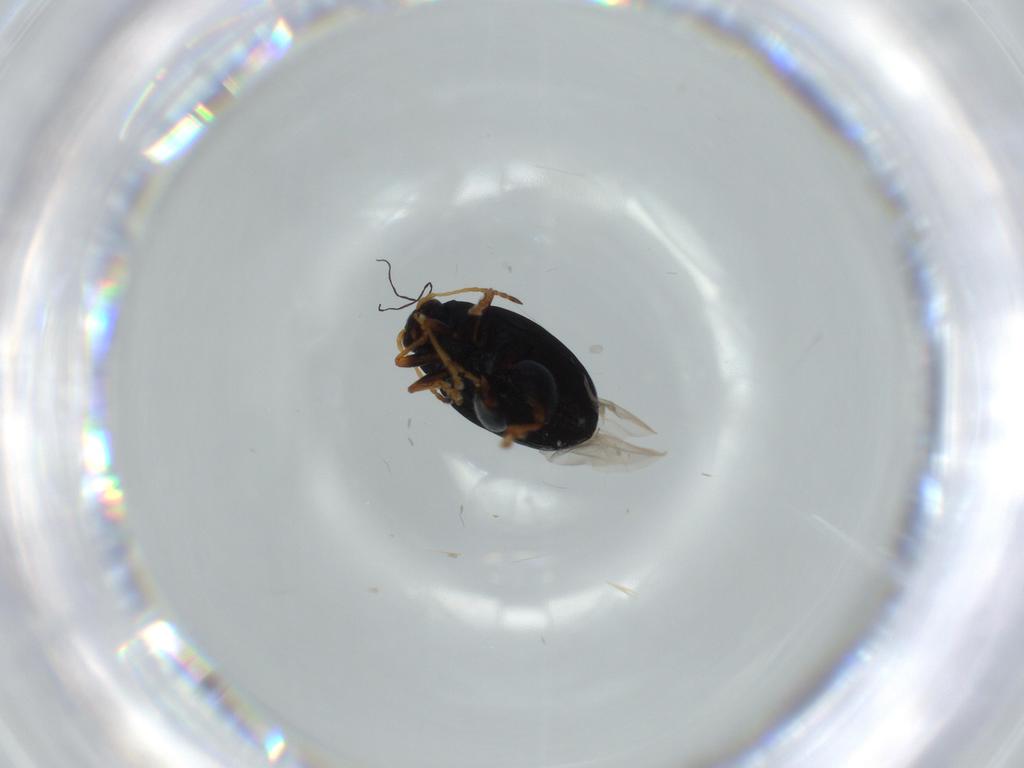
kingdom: Animalia
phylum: Arthropoda
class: Insecta
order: Coleoptera
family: Chrysomelidae
